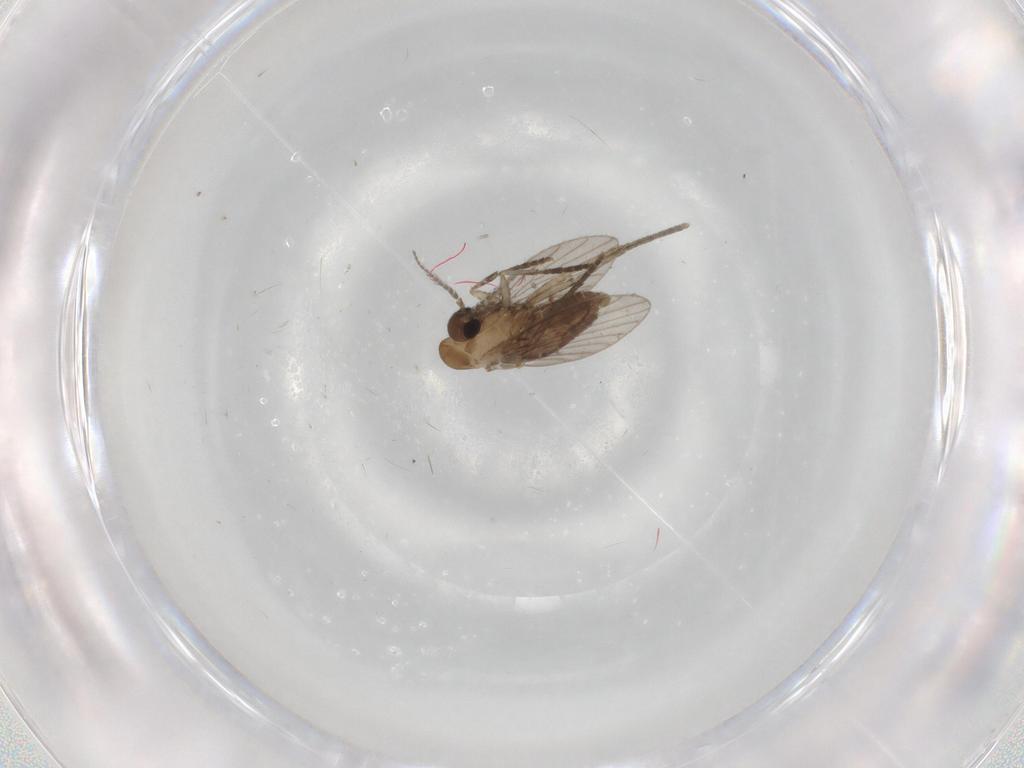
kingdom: Animalia
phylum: Arthropoda
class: Insecta
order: Diptera
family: Psychodidae
